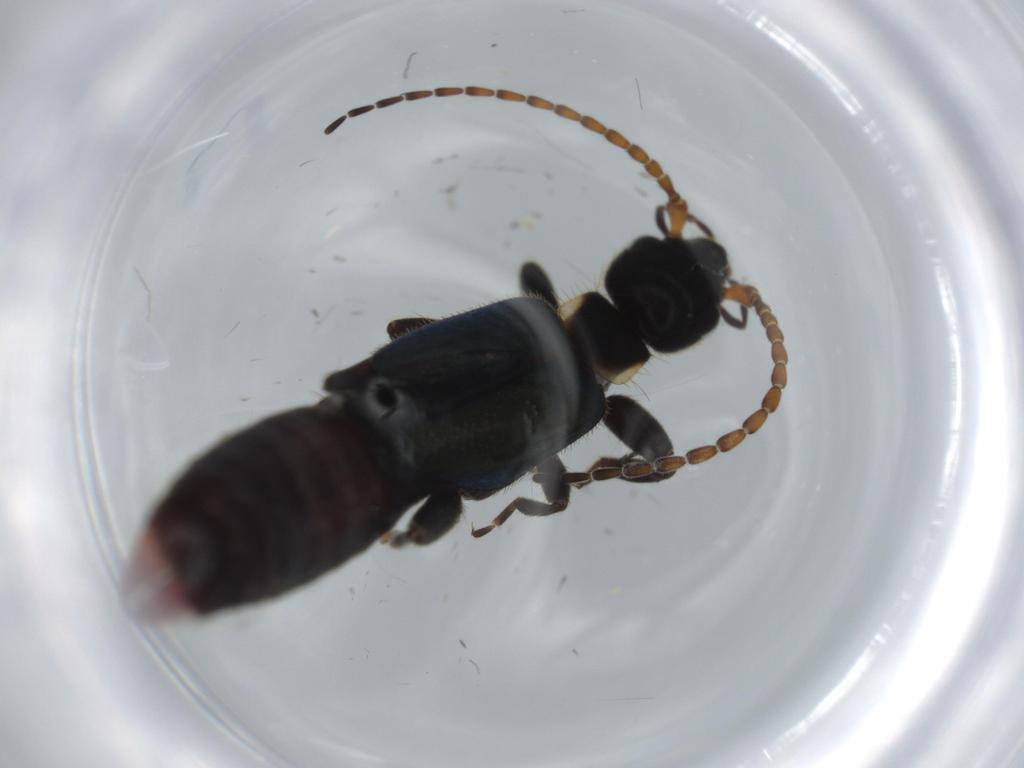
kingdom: Animalia
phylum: Arthropoda
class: Insecta
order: Dermaptera
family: Forficulidae
